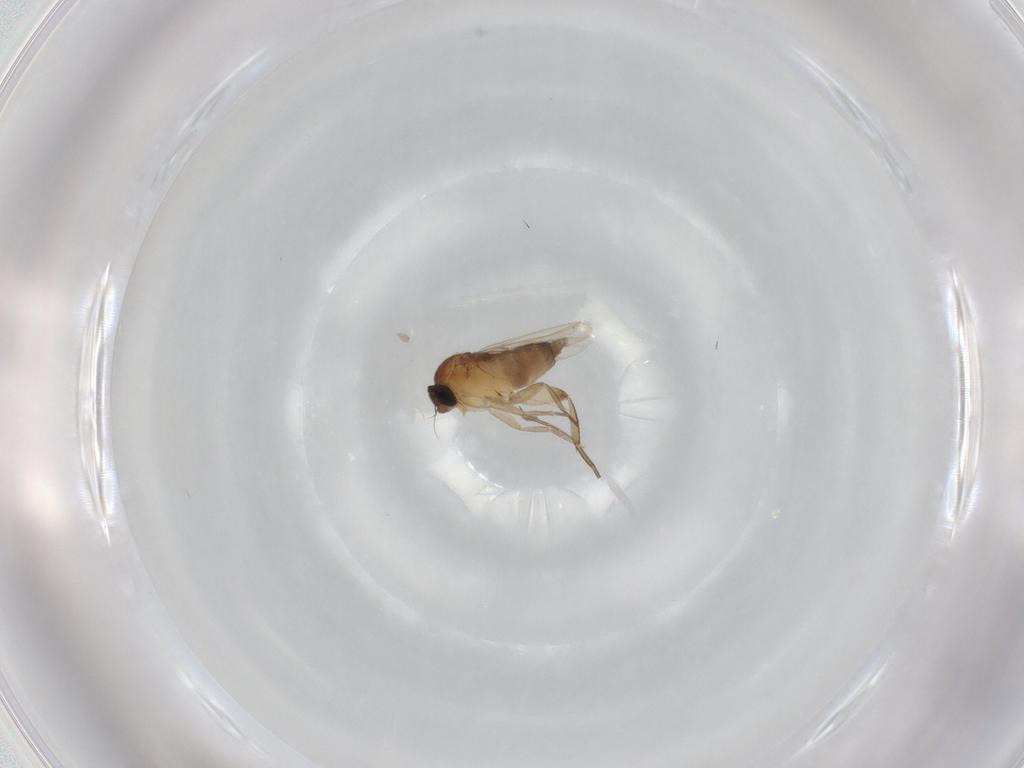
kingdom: Animalia
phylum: Arthropoda
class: Insecta
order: Diptera
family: Phoridae
